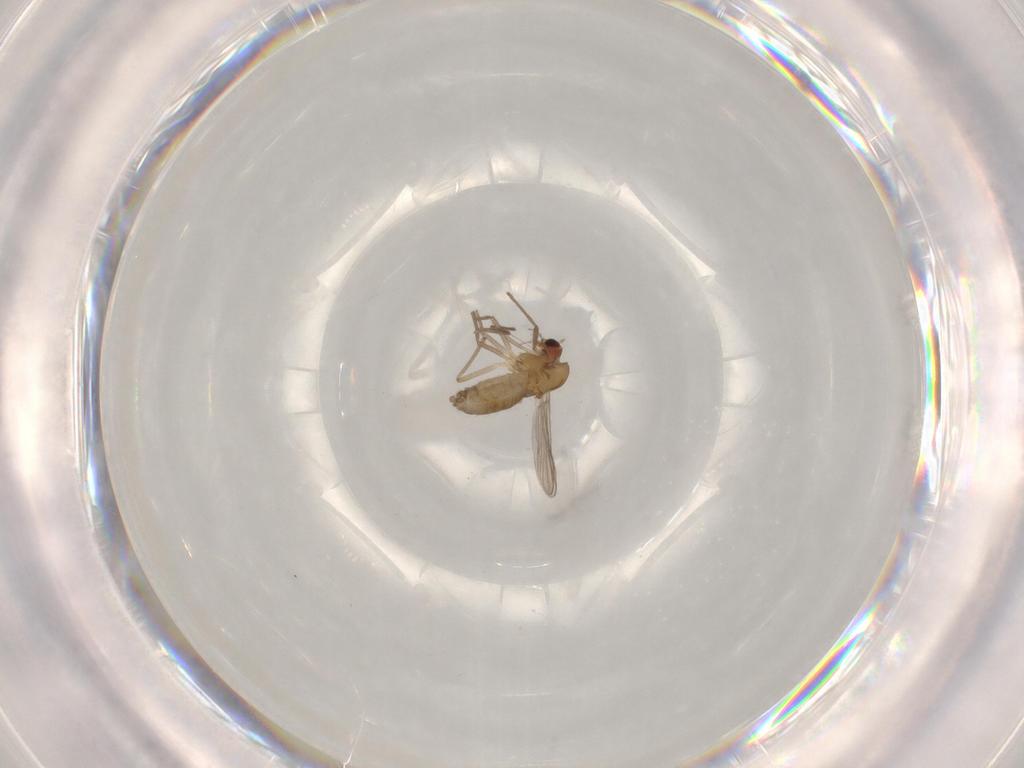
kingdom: Animalia
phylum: Arthropoda
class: Insecta
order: Diptera
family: Chironomidae
